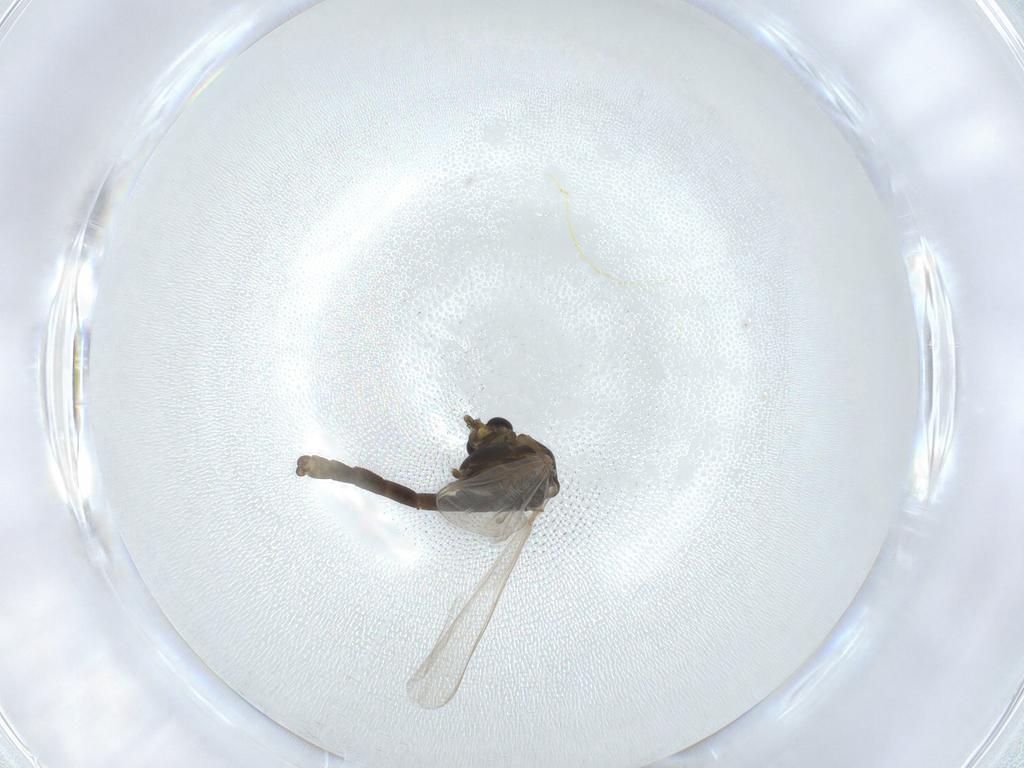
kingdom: Animalia
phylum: Arthropoda
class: Insecta
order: Diptera
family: Chironomidae
